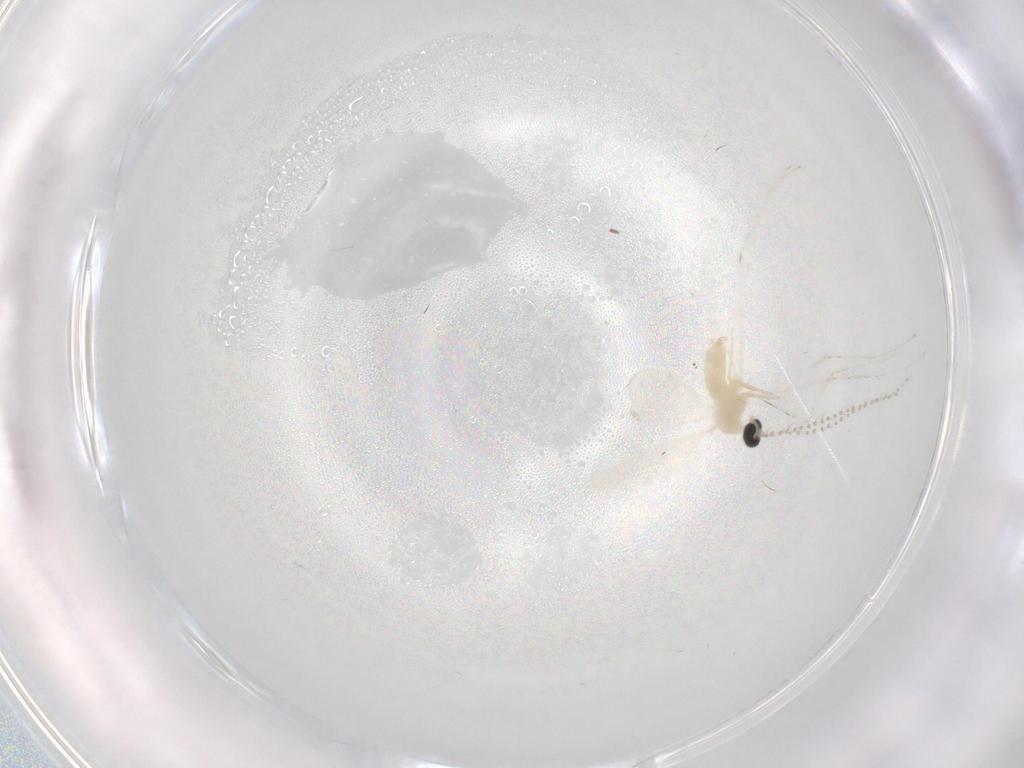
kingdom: Animalia
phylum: Arthropoda
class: Insecta
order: Diptera
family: Cecidomyiidae
